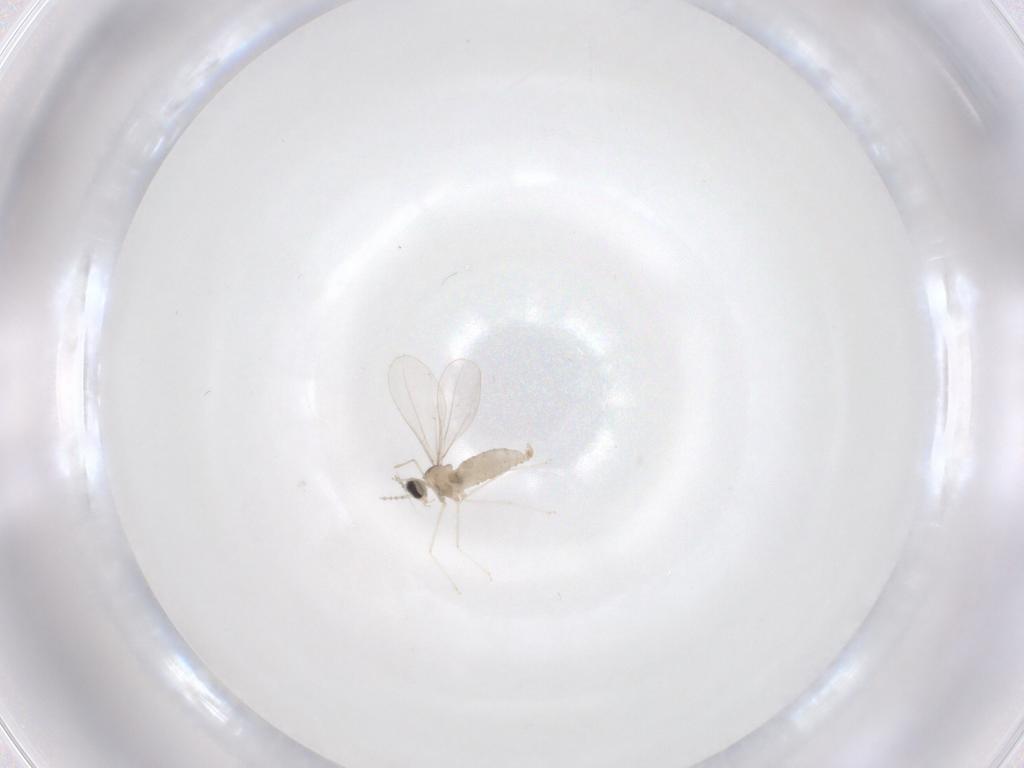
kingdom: Animalia
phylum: Arthropoda
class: Insecta
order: Diptera
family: Cecidomyiidae
